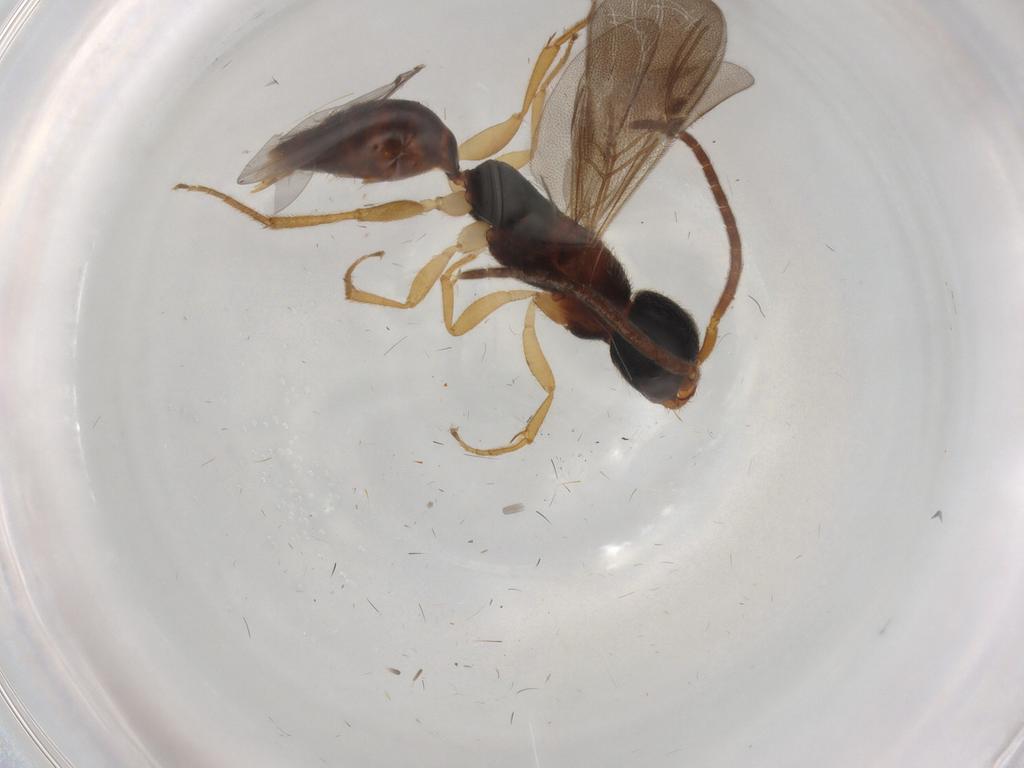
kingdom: Animalia
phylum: Arthropoda
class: Insecta
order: Hymenoptera
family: Bethylidae
